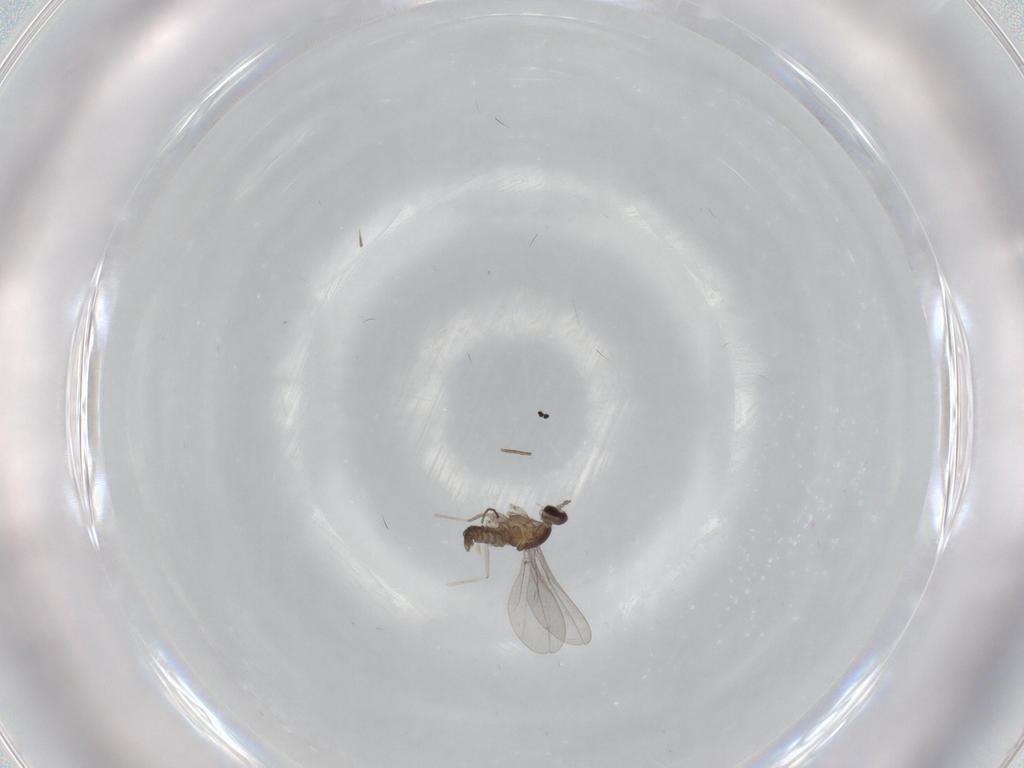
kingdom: Animalia
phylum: Arthropoda
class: Insecta
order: Diptera
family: Cecidomyiidae
